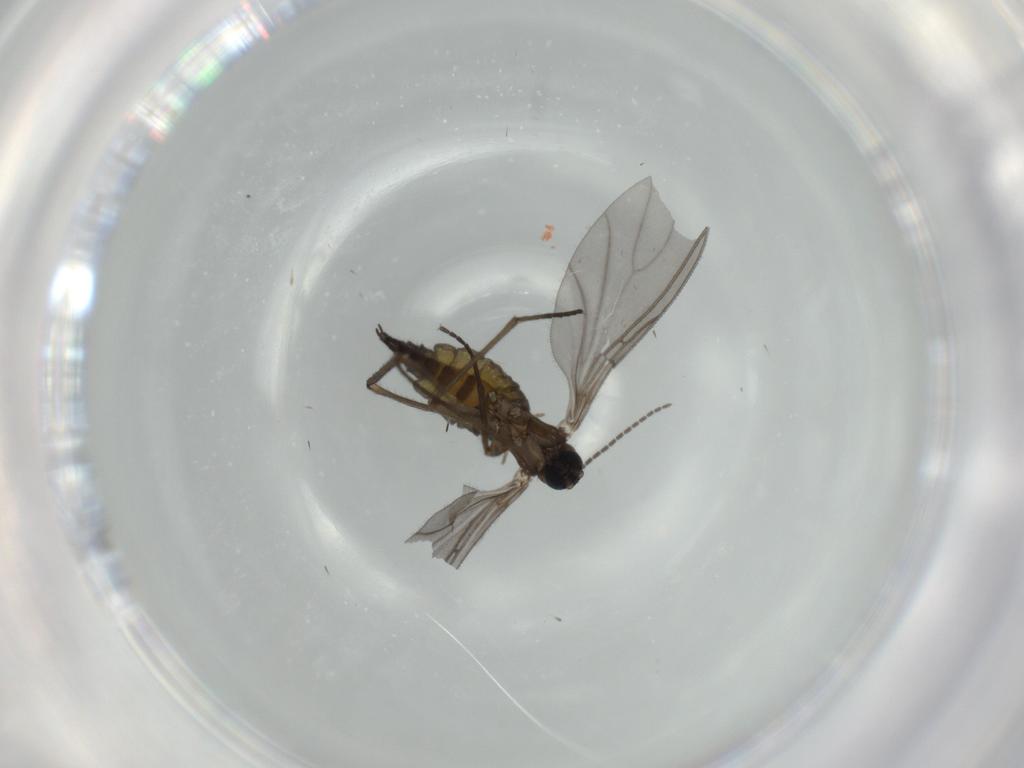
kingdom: Animalia
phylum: Arthropoda
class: Insecta
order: Diptera
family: Sciaridae
